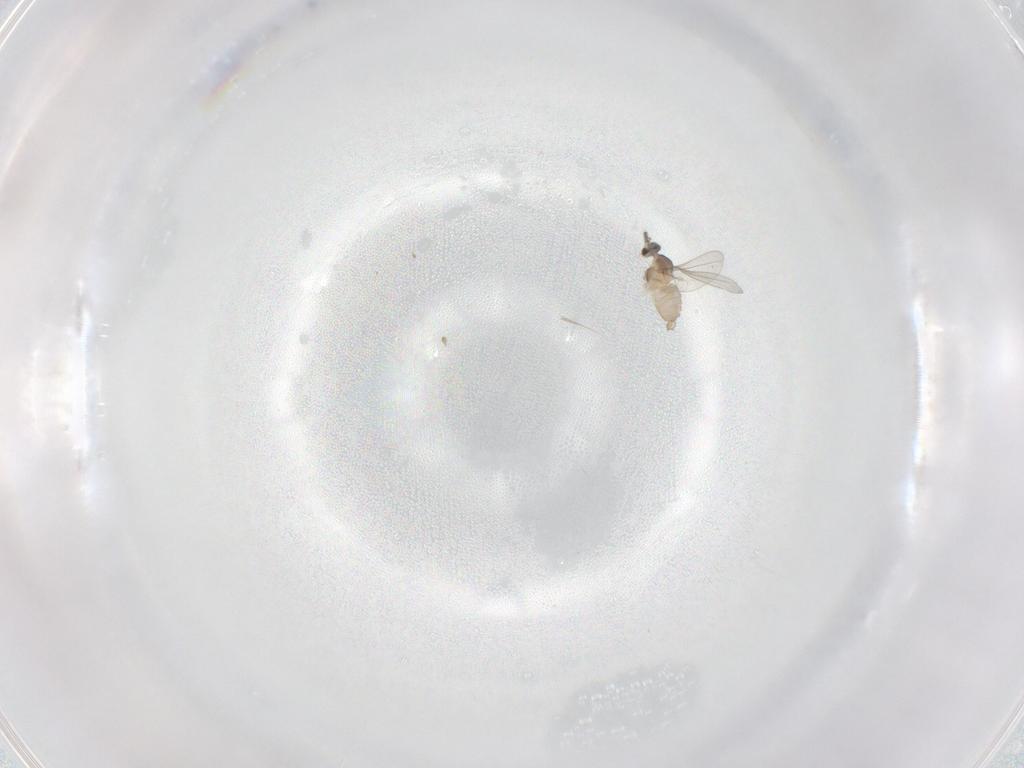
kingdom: Animalia
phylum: Arthropoda
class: Insecta
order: Diptera
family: Cecidomyiidae
